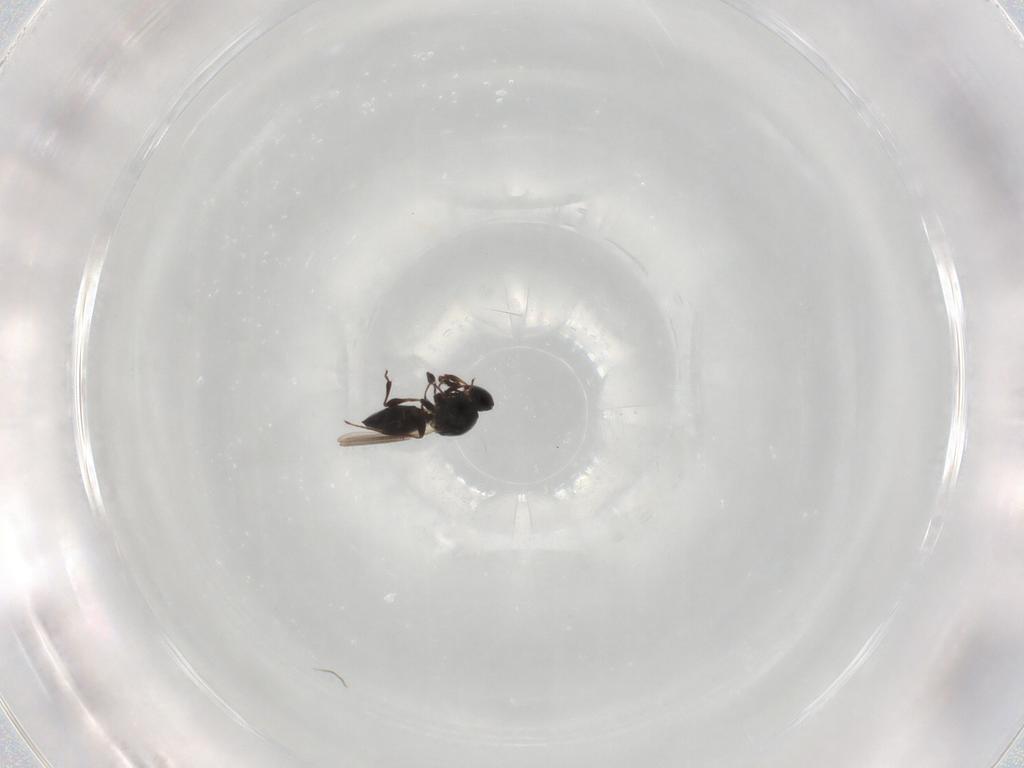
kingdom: Animalia
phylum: Arthropoda
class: Insecta
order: Hymenoptera
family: Platygastridae
